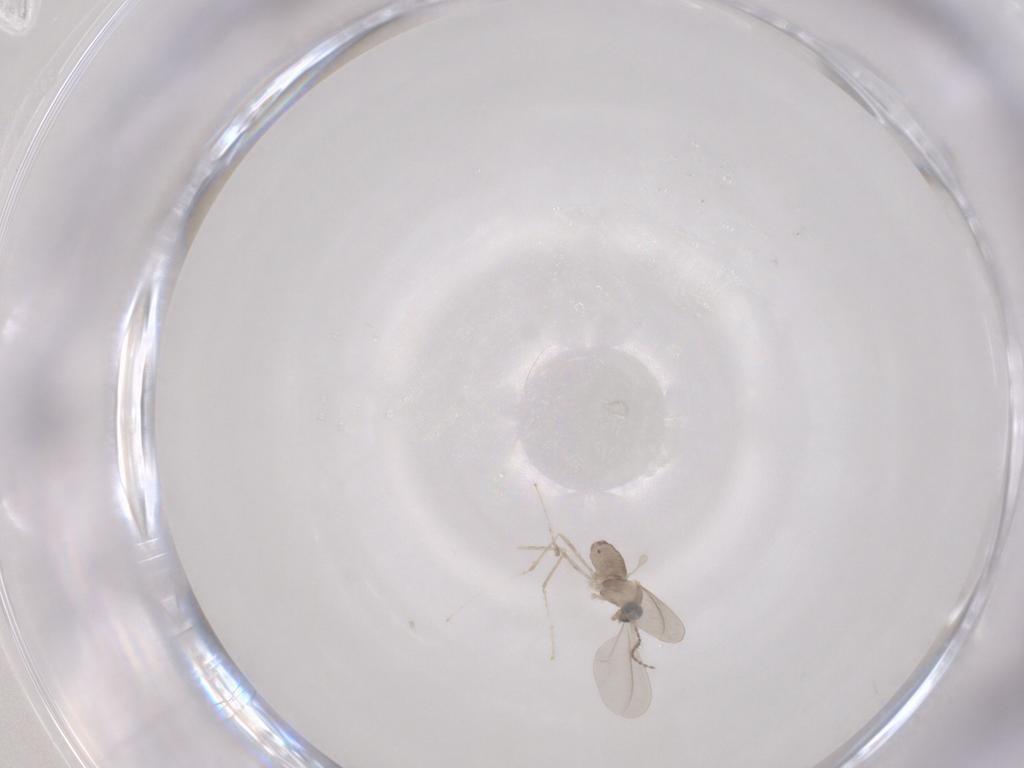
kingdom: Animalia
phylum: Arthropoda
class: Insecta
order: Diptera
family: Cecidomyiidae
